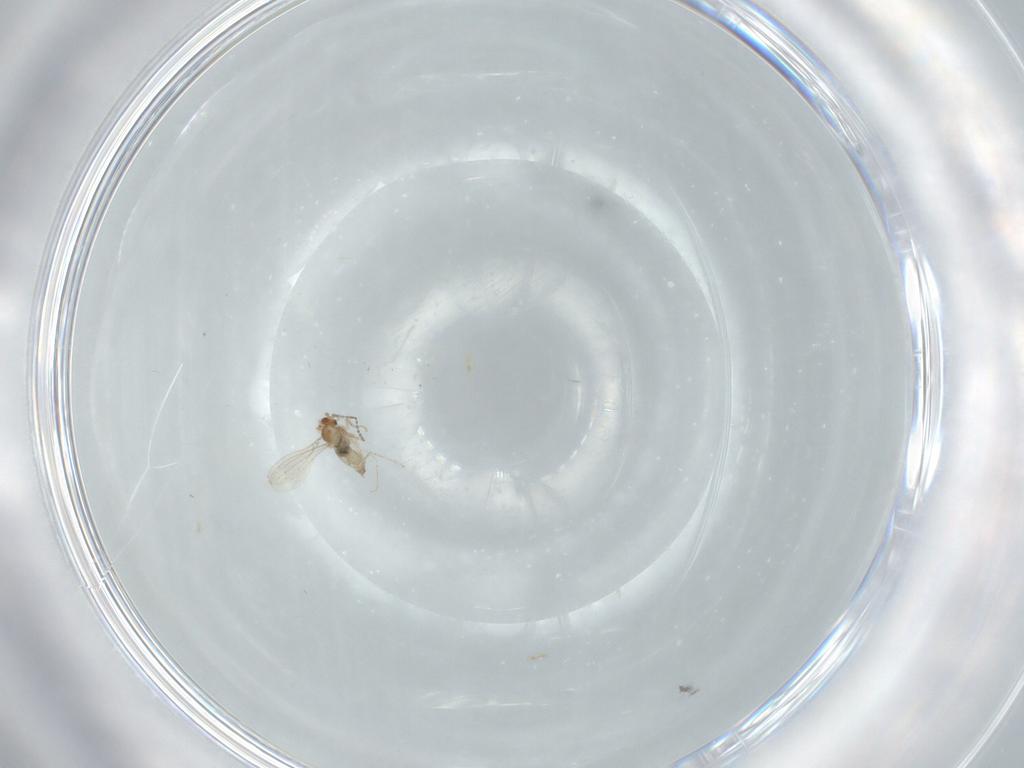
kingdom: Animalia
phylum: Arthropoda
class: Insecta
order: Diptera
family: Cecidomyiidae
